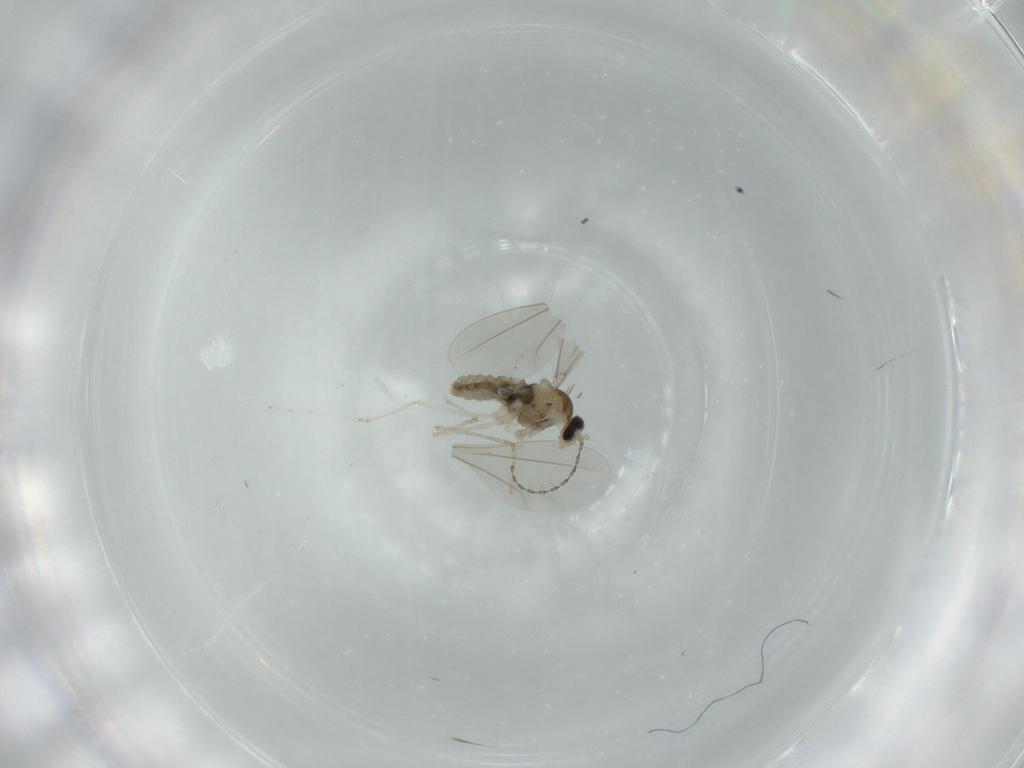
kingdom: Animalia
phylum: Arthropoda
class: Insecta
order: Diptera
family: Cecidomyiidae
